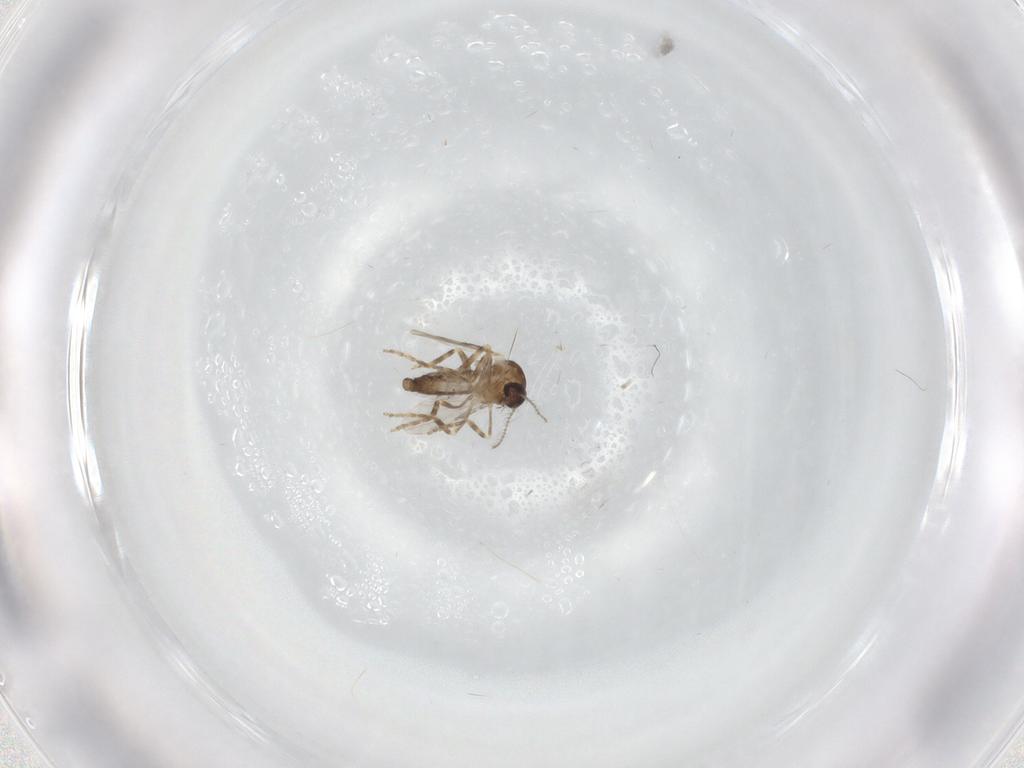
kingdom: Animalia
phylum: Arthropoda
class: Insecta
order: Diptera
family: Ceratopogonidae
